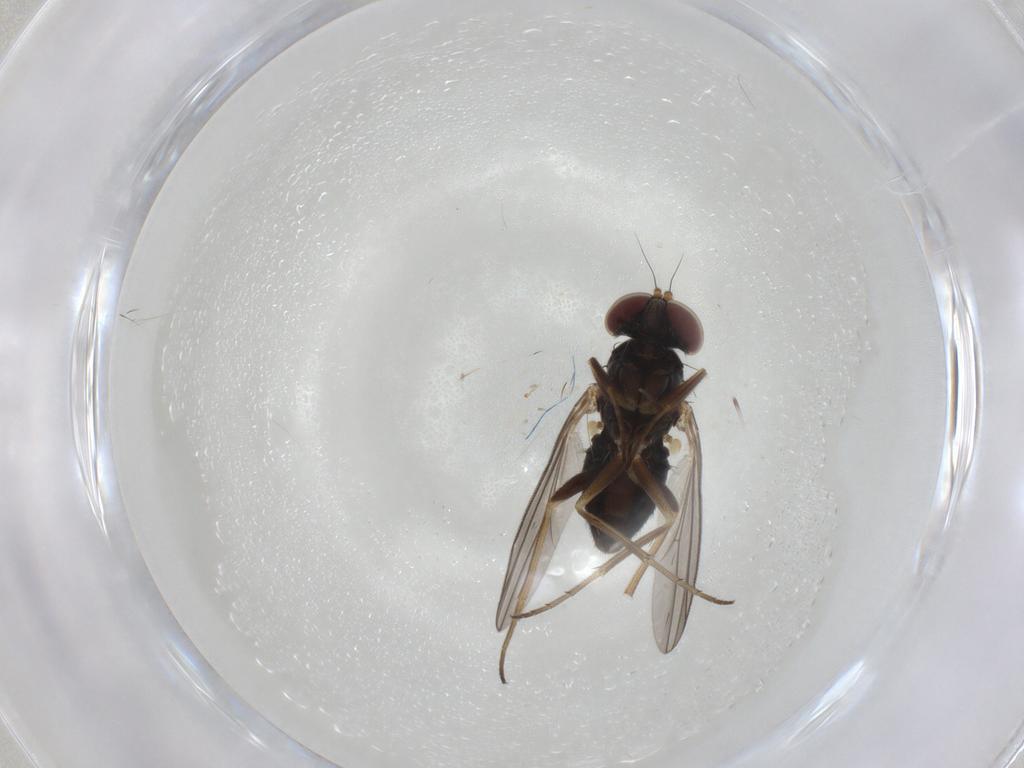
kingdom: Animalia
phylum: Arthropoda
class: Insecta
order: Diptera
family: Dolichopodidae
